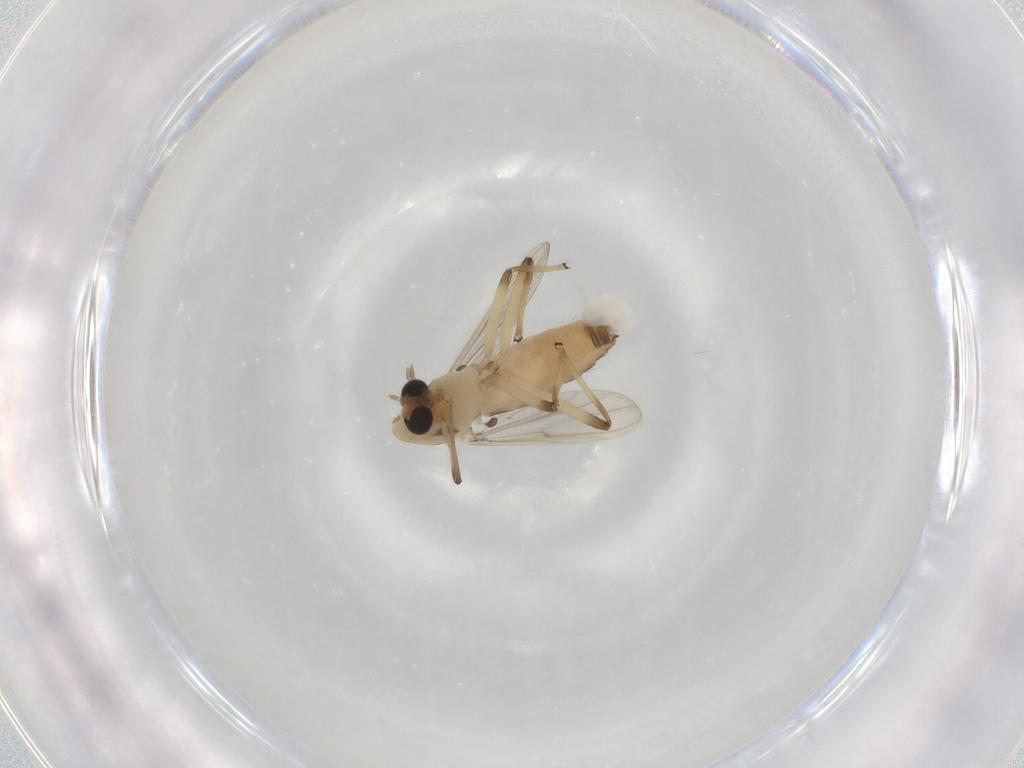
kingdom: Animalia
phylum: Arthropoda
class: Insecta
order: Diptera
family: Chironomidae
